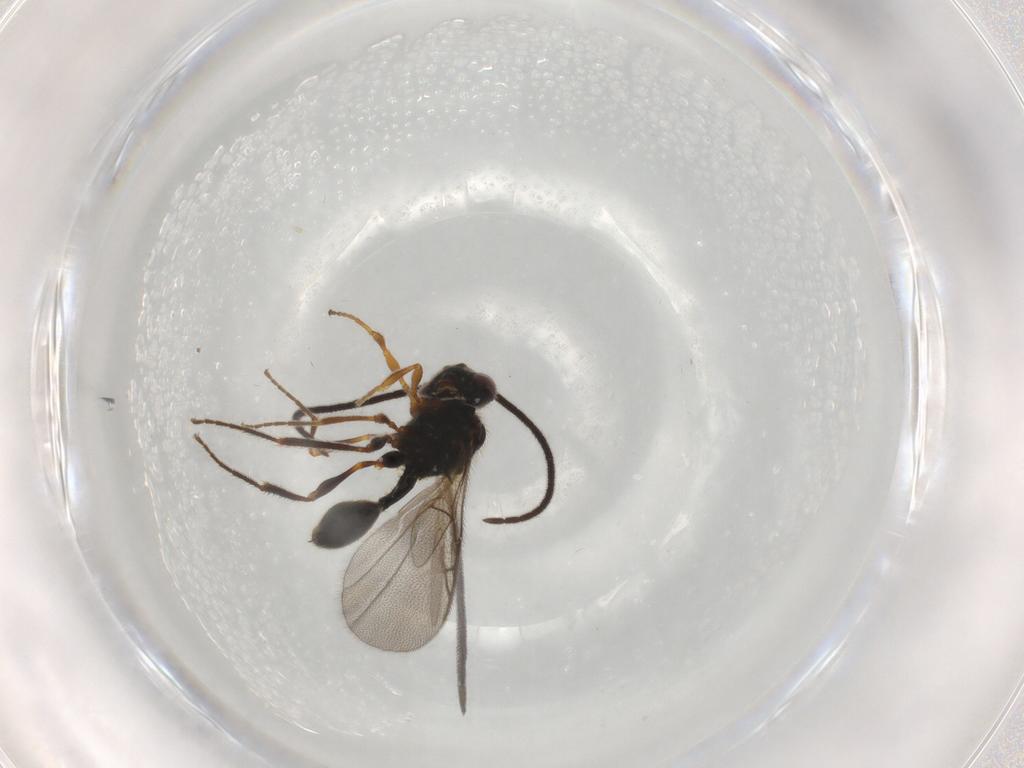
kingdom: Animalia
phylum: Arthropoda
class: Insecta
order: Hymenoptera
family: Diapriidae
